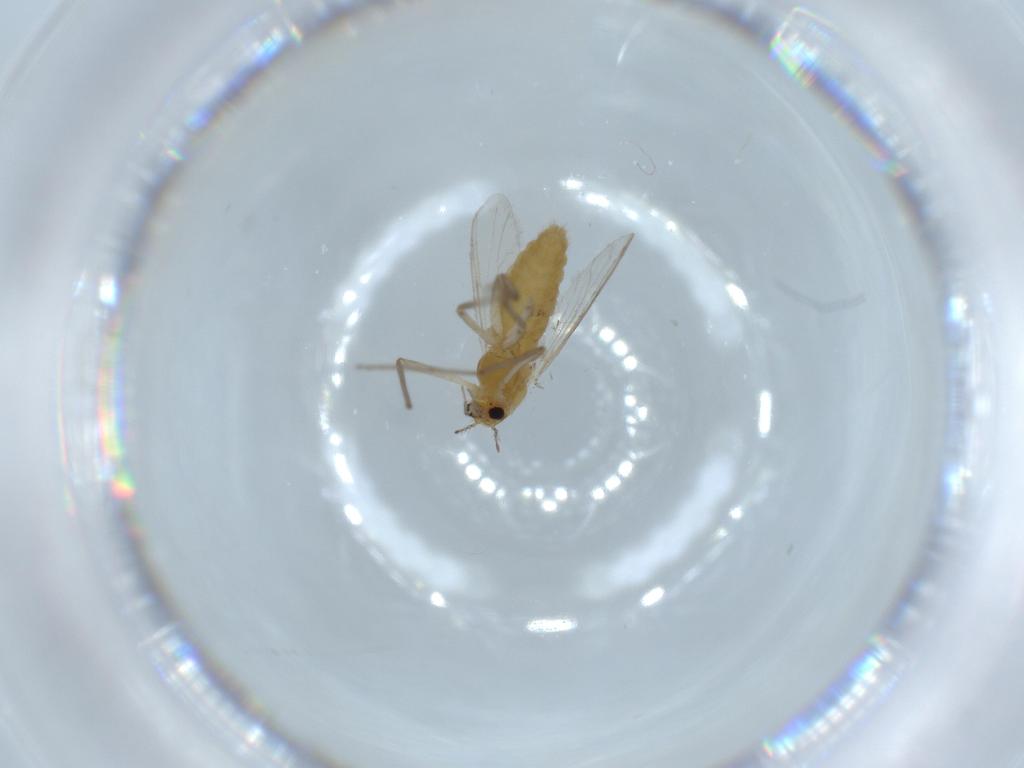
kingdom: Animalia
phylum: Arthropoda
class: Insecta
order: Diptera
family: Chironomidae
